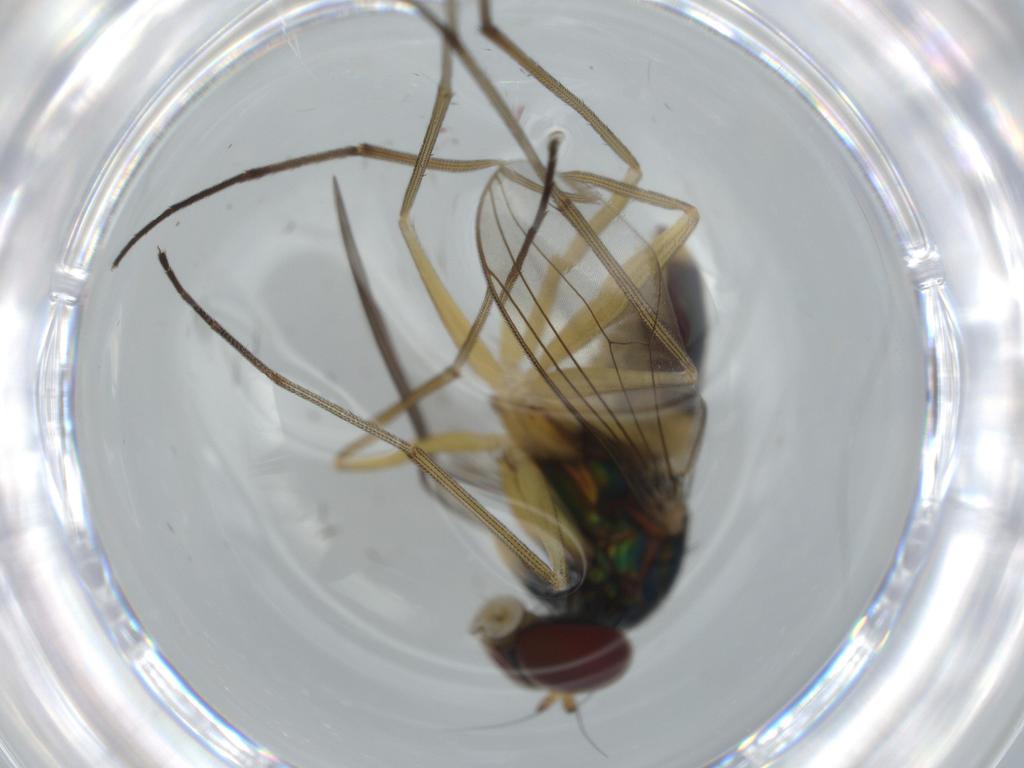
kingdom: Animalia
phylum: Arthropoda
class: Insecta
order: Diptera
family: Dolichopodidae
